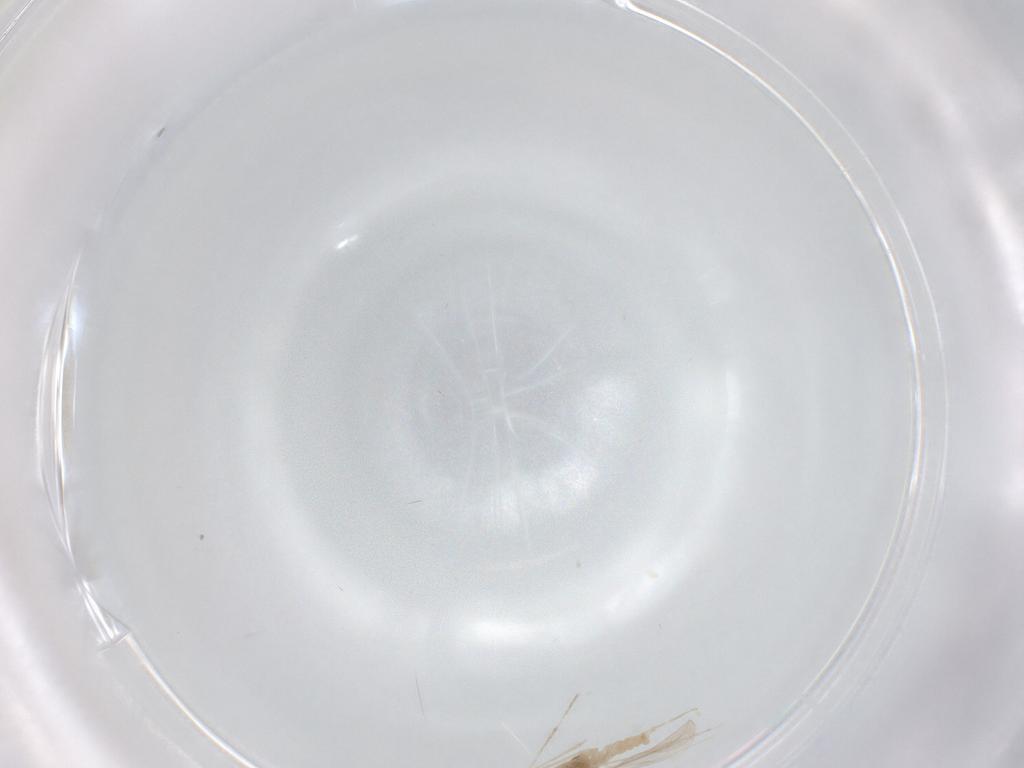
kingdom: Animalia
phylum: Arthropoda
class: Insecta
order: Diptera
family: Cecidomyiidae
